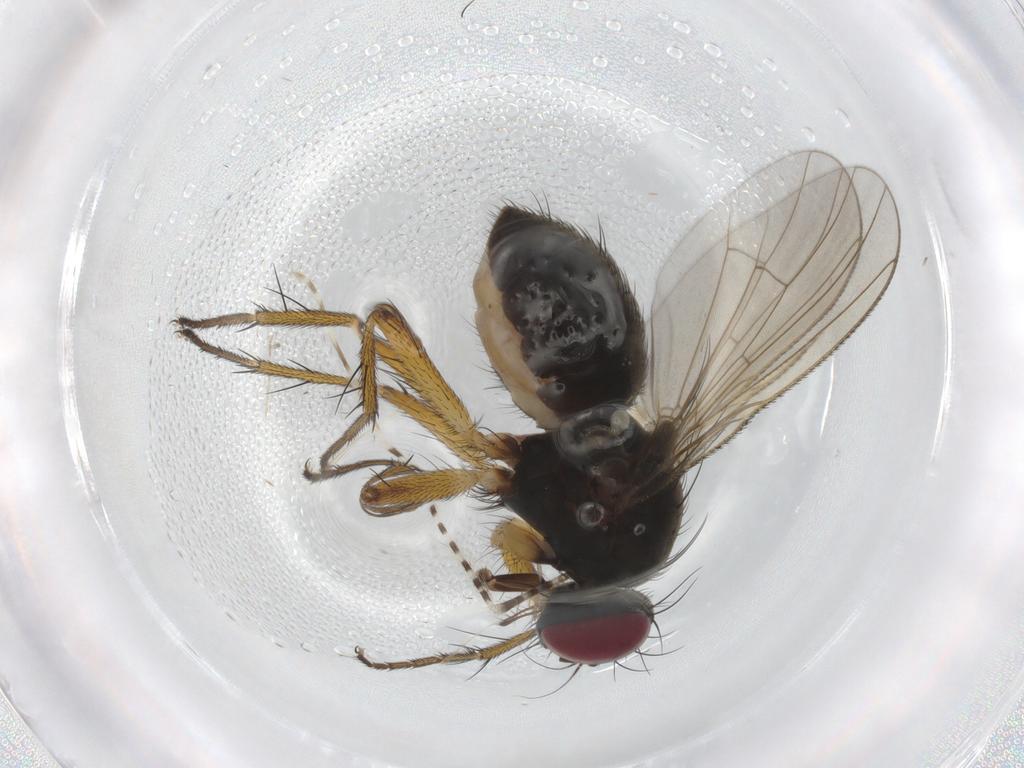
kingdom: Animalia
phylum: Arthropoda
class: Insecta
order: Diptera
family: Muscidae
